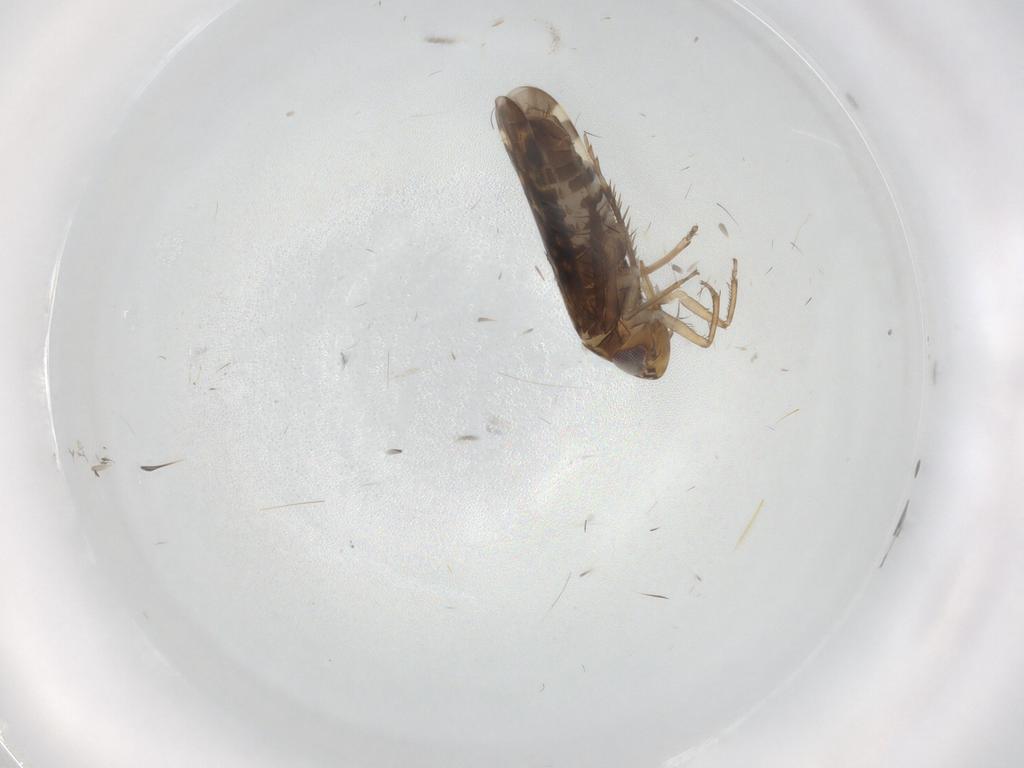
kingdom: Animalia
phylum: Arthropoda
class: Insecta
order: Hemiptera
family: Cicadellidae
